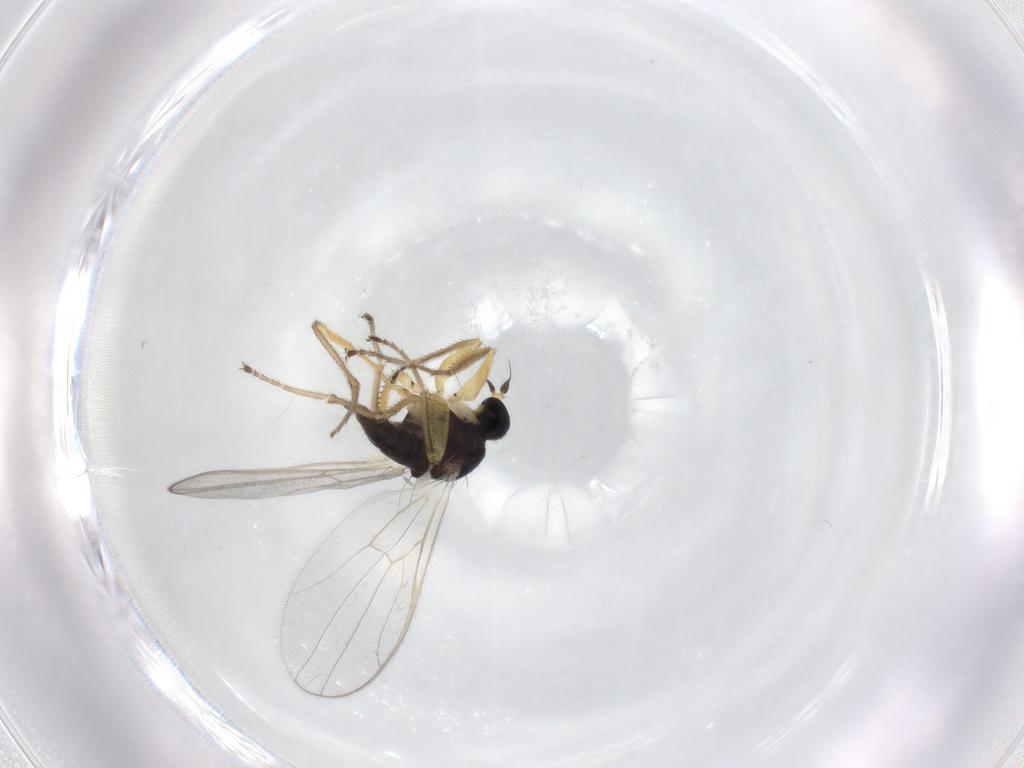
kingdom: Animalia
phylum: Arthropoda
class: Insecta
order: Diptera
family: Hybotidae
